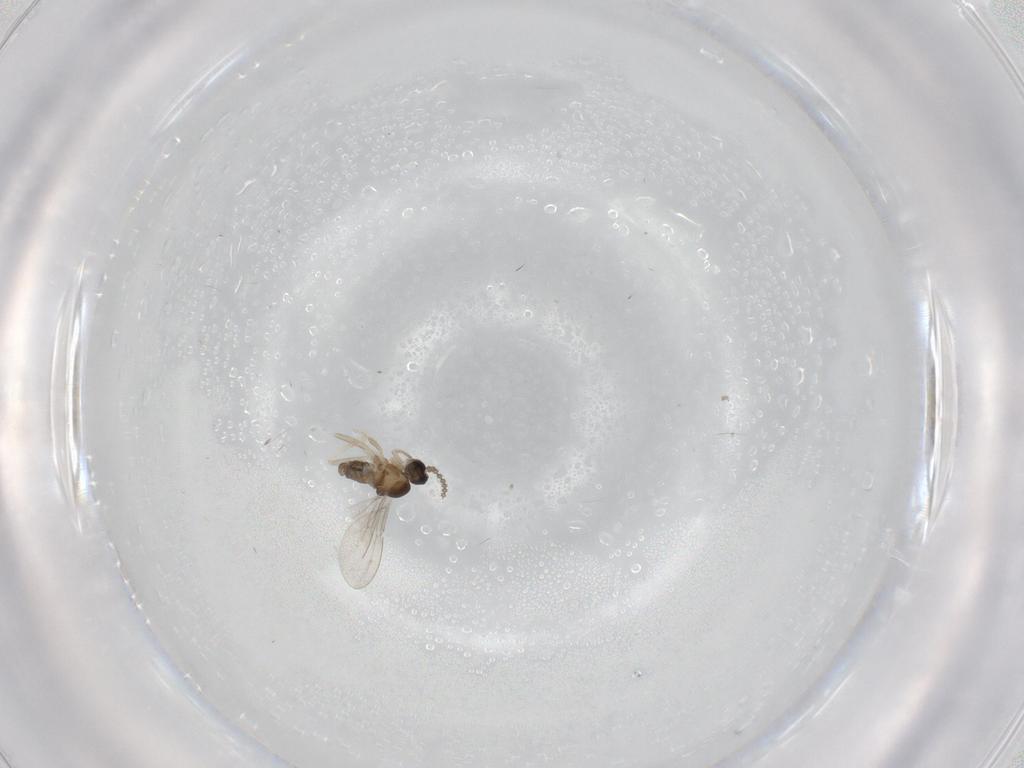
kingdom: Animalia
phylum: Arthropoda
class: Insecta
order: Diptera
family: Cecidomyiidae
